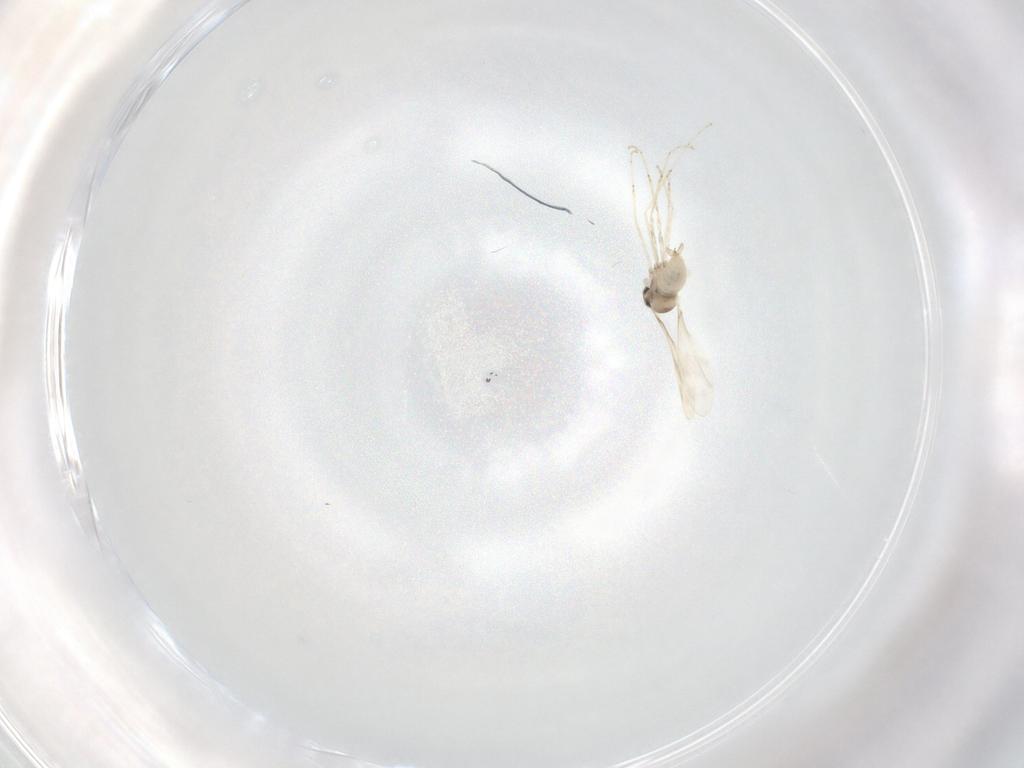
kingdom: Animalia
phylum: Arthropoda
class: Insecta
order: Diptera
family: Cecidomyiidae
